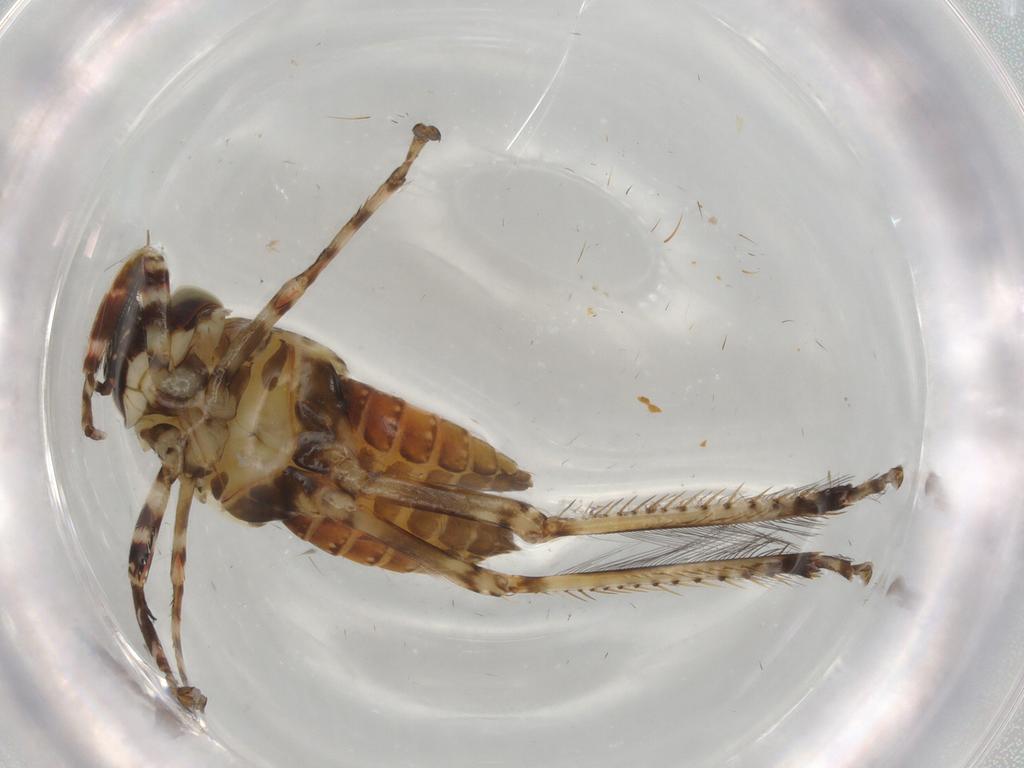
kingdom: Animalia
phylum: Arthropoda
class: Insecta
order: Hemiptera
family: Cicadellidae
